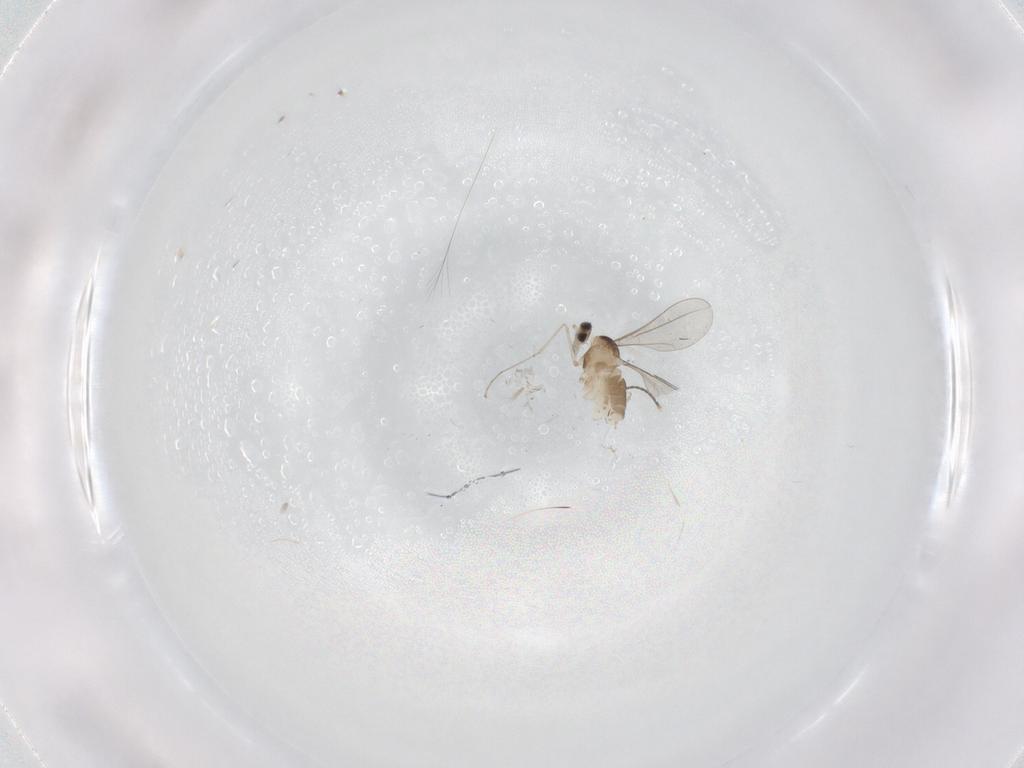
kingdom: Animalia
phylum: Arthropoda
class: Insecta
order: Diptera
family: Cecidomyiidae
